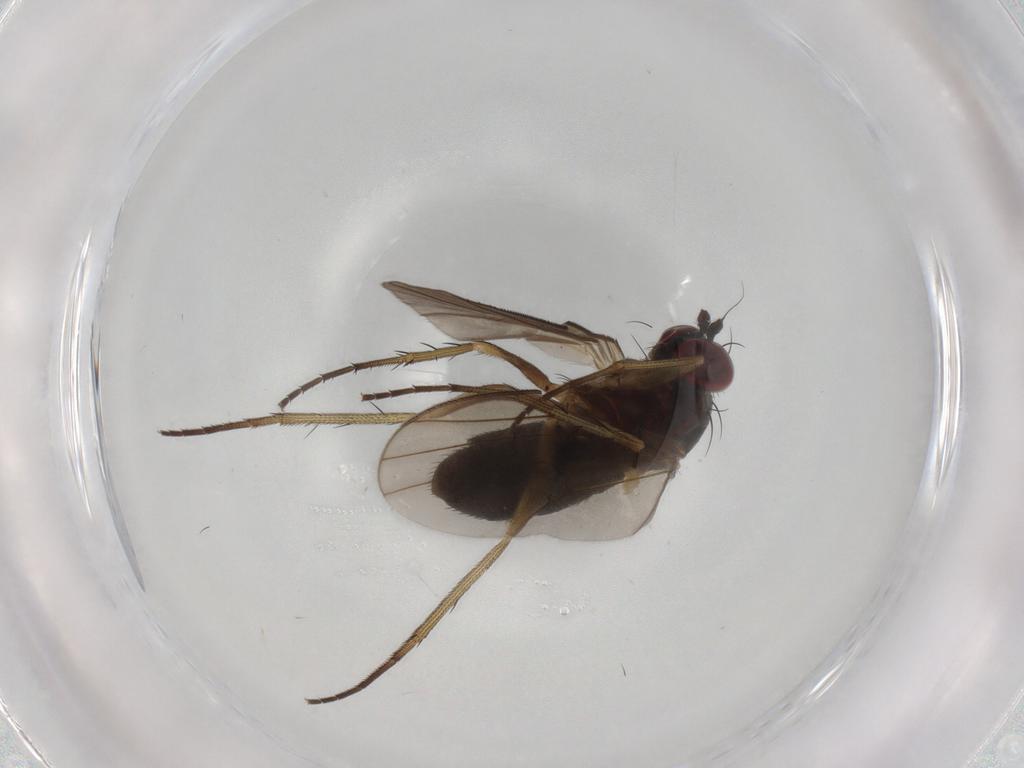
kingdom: Animalia
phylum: Arthropoda
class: Insecta
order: Diptera
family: Dolichopodidae
